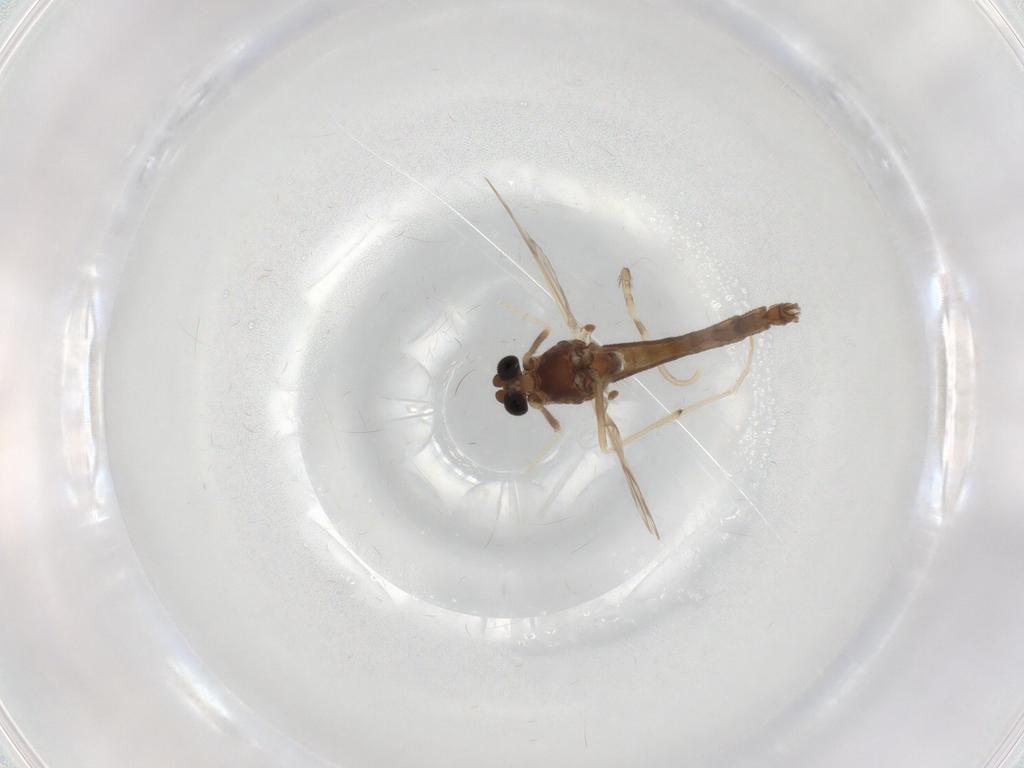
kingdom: Animalia
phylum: Arthropoda
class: Insecta
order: Diptera
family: Chironomidae
